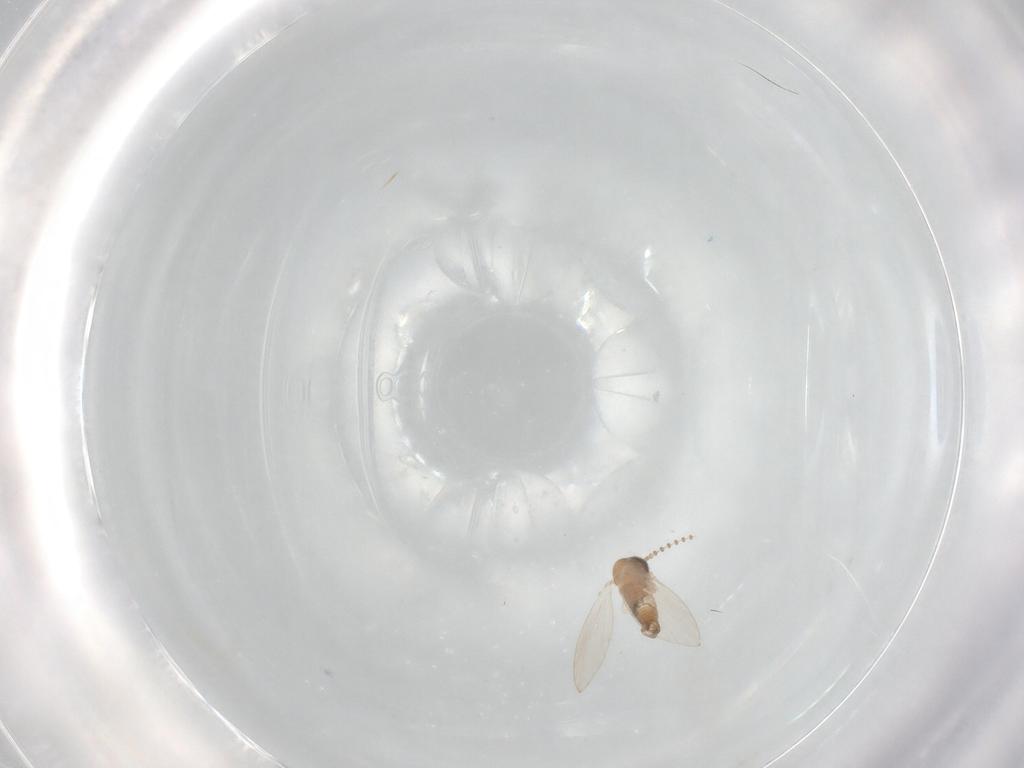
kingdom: Animalia
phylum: Arthropoda
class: Insecta
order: Diptera
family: Psychodidae
